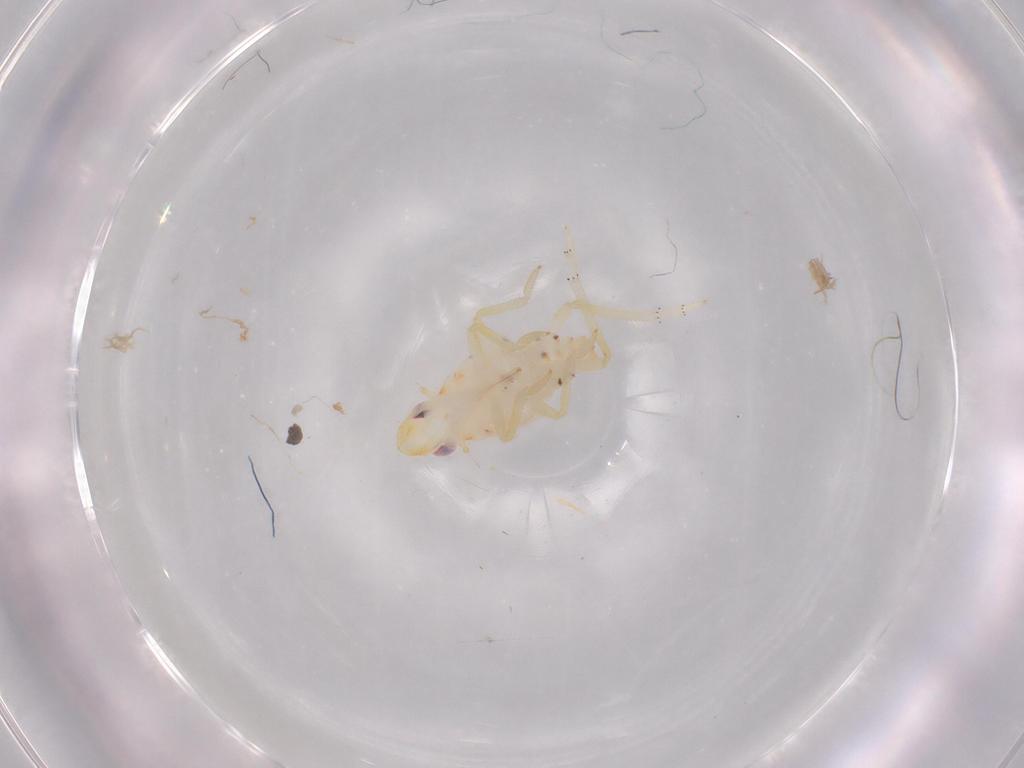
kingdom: Animalia
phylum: Arthropoda
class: Insecta
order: Hemiptera
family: Tropiduchidae
